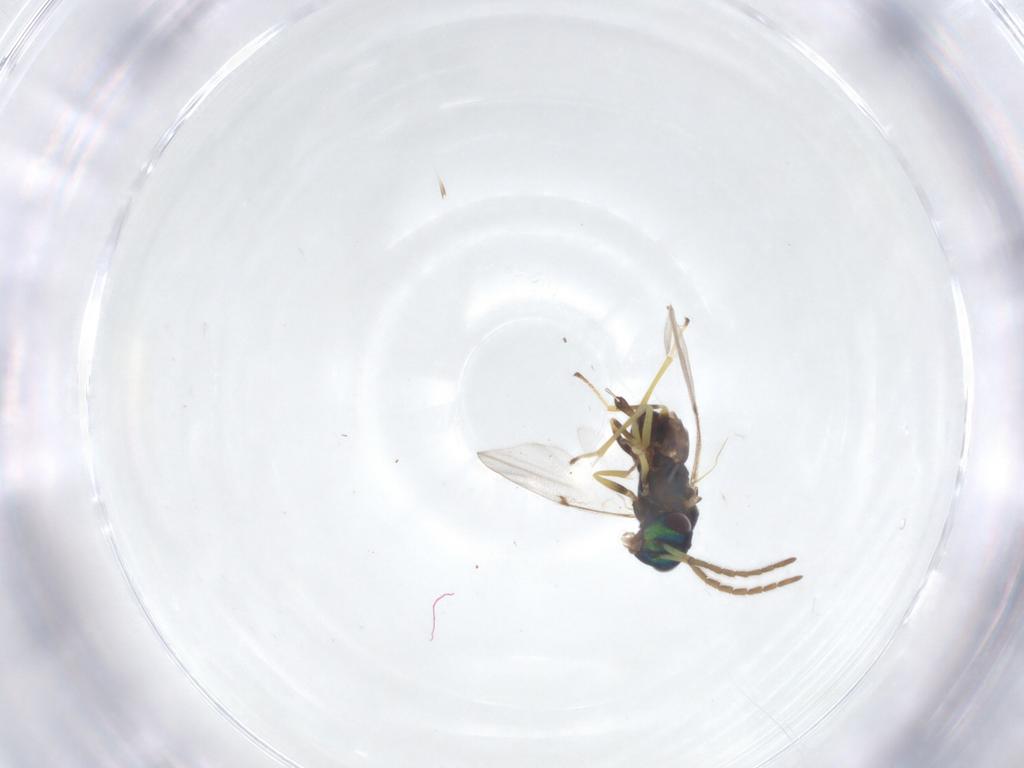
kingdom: Animalia
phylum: Arthropoda
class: Insecta
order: Hymenoptera
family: Encyrtidae
